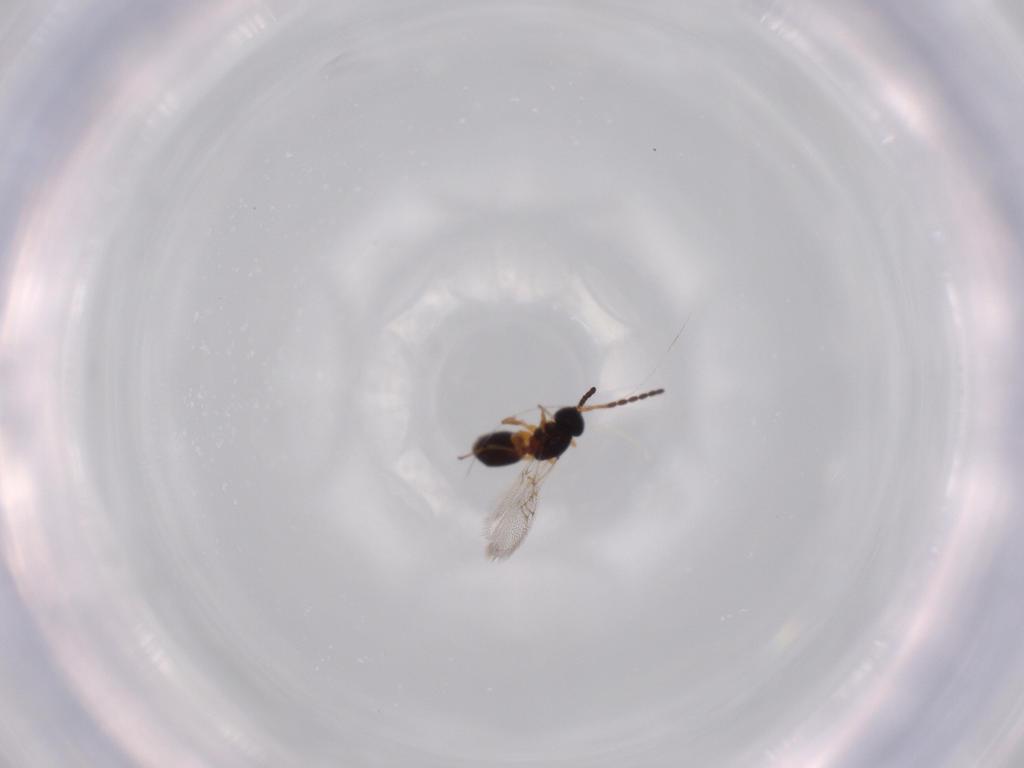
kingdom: Animalia
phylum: Arthropoda
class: Insecta
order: Hymenoptera
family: Figitidae
